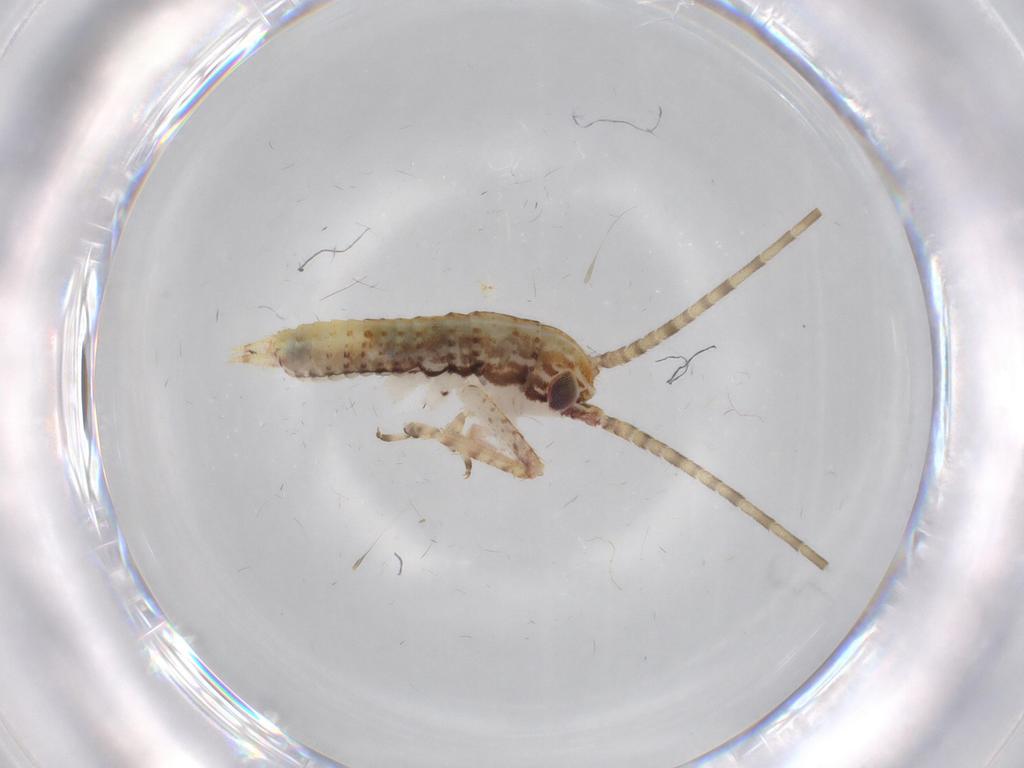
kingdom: Animalia
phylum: Arthropoda
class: Insecta
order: Orthoptera
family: Gryllidae
